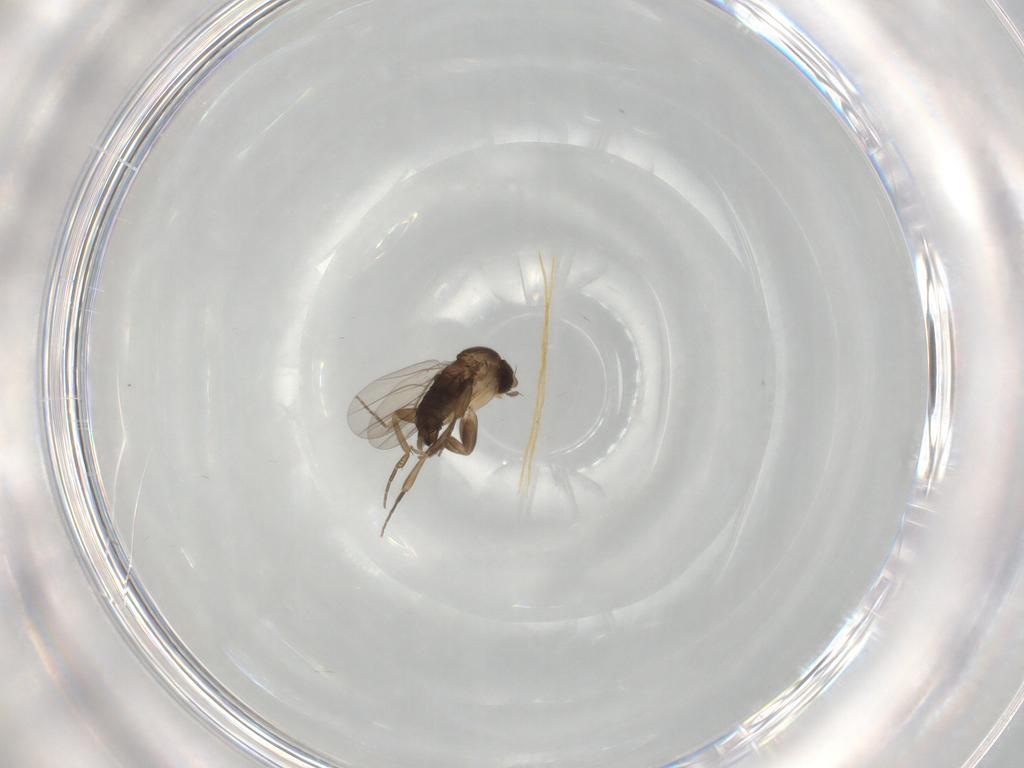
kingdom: Animalia
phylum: Arthropoda
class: Insecta
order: Diptera
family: Phoridae
